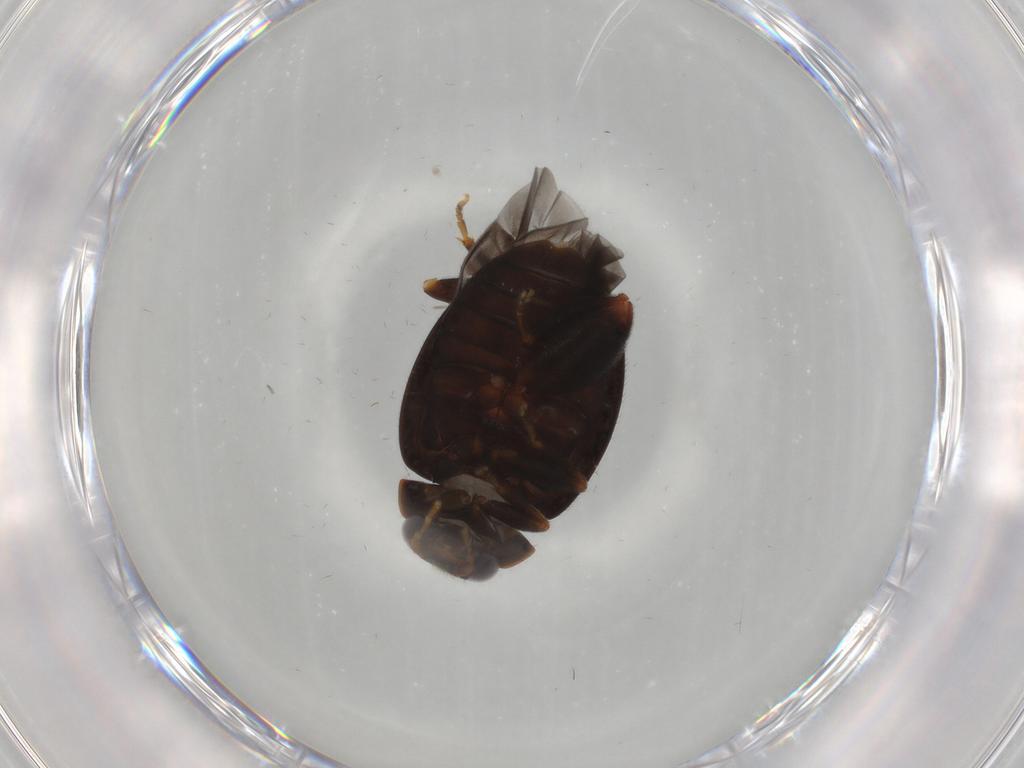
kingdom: Animalia
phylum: Arthropoda
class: Insecta
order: Coleoptera
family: Scirtidae
